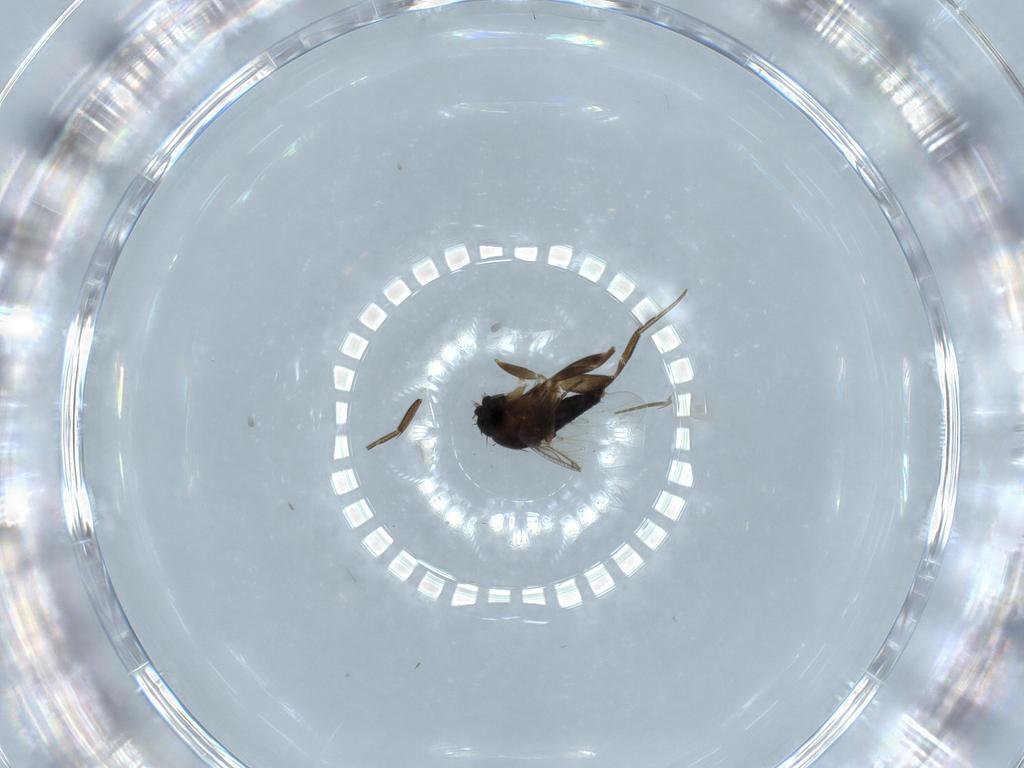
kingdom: Animalia
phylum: Arthropoda
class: Insecta
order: Diptera
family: Phoridae
